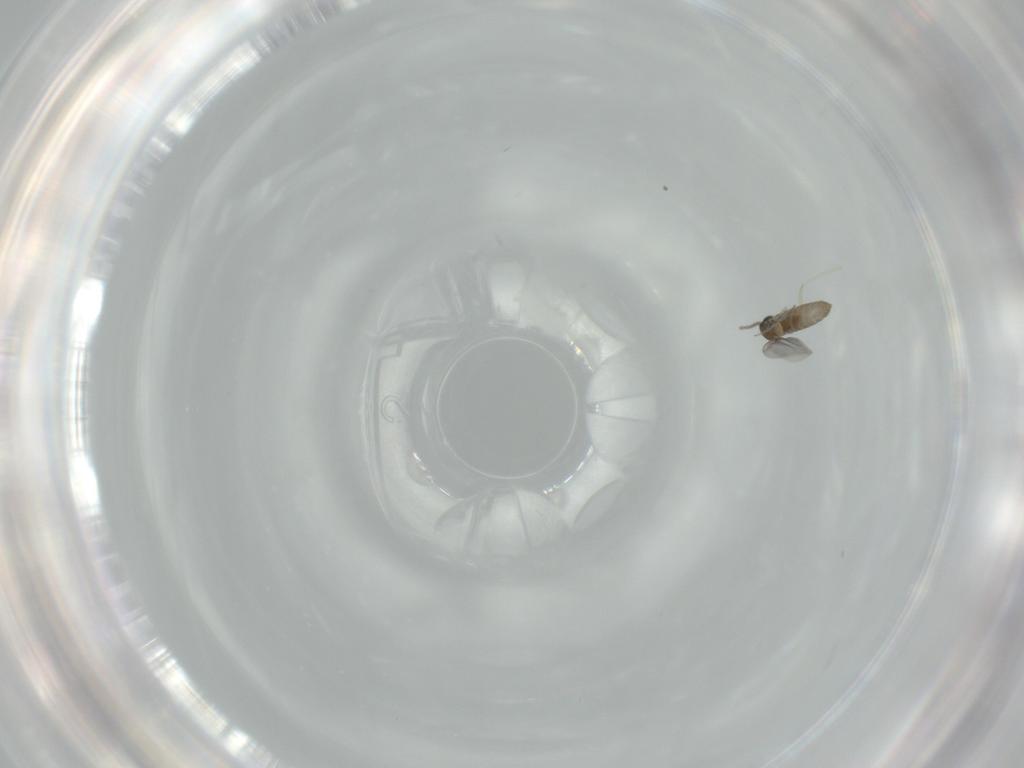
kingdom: Animalia
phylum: Arthropoda
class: Insecta
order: Diptera
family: Cecidomyiidae
